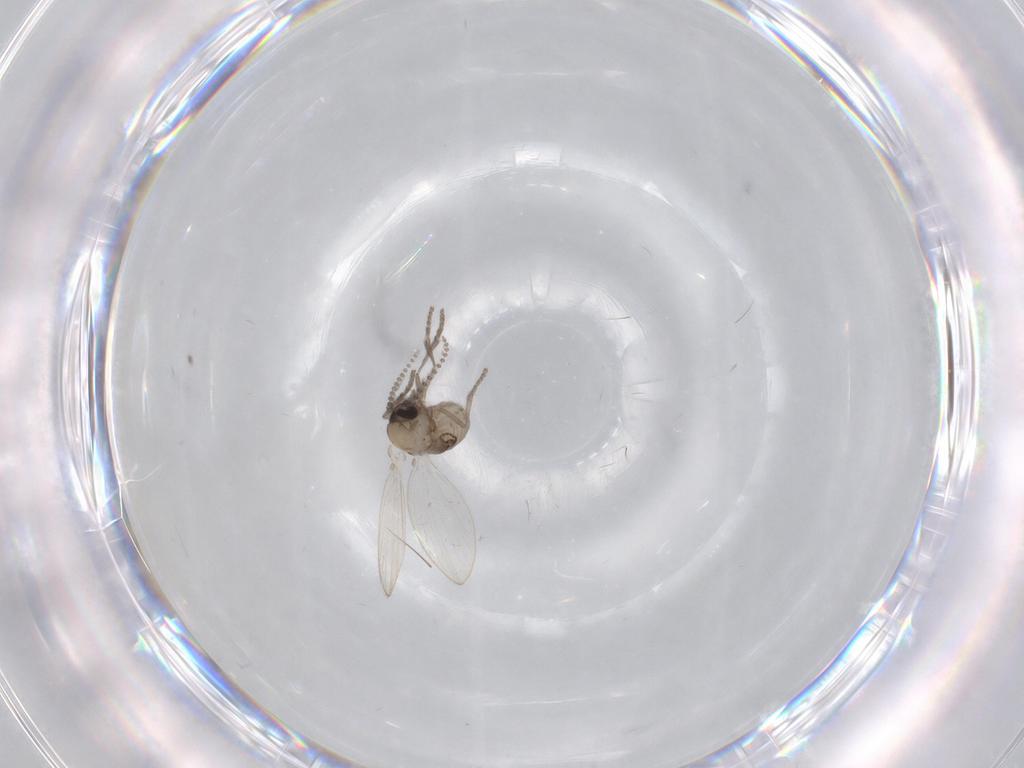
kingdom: Animalia
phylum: Arthropoda
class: Insecta
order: Diptera
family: Psychodidae
